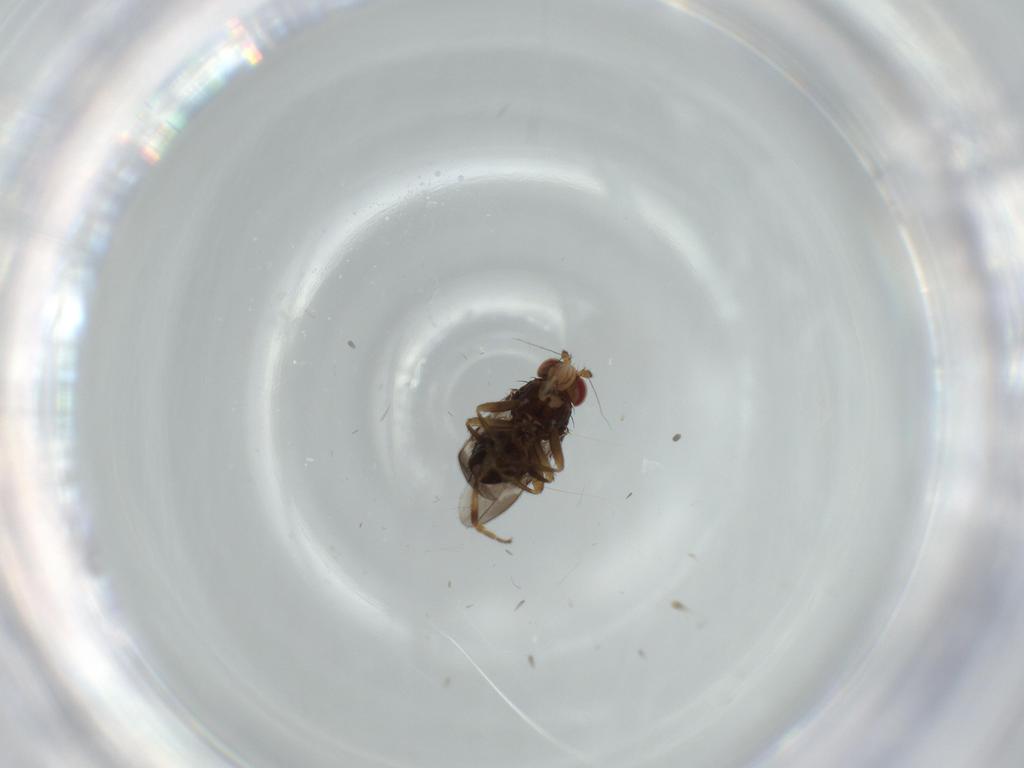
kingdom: Animalia
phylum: Arthropoda
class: Insecta
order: Diptera
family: Sphaeroceridae
